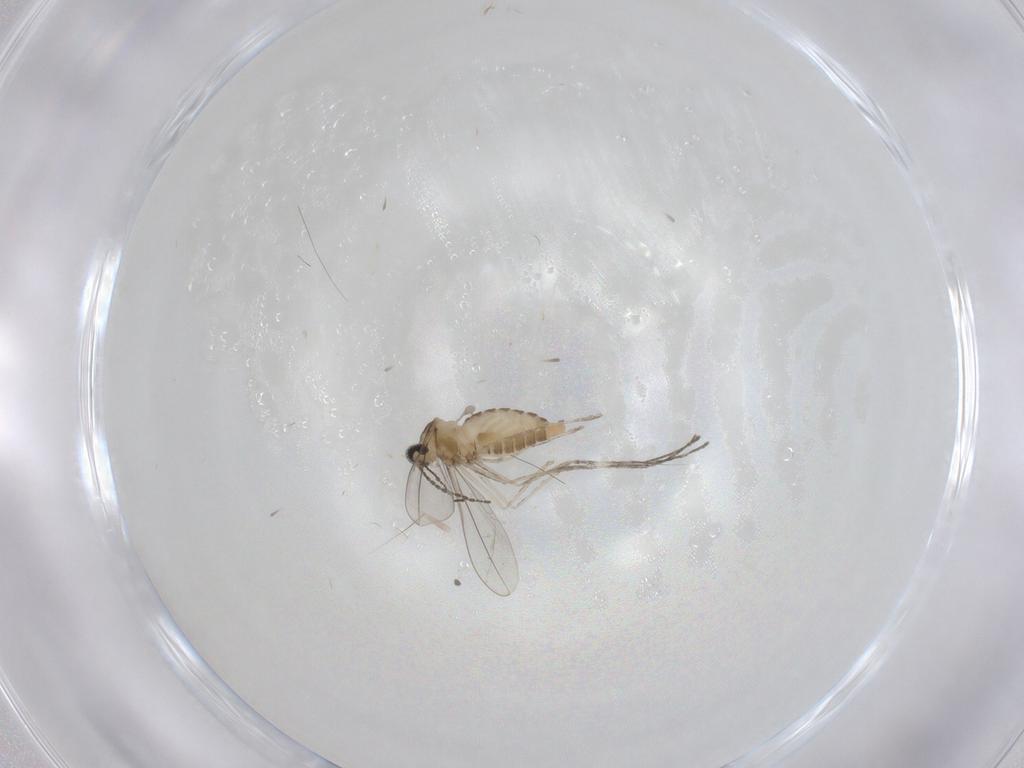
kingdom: Animalia
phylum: Arthropoda
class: Insecta
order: Diptera
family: Cecidomyiidae
